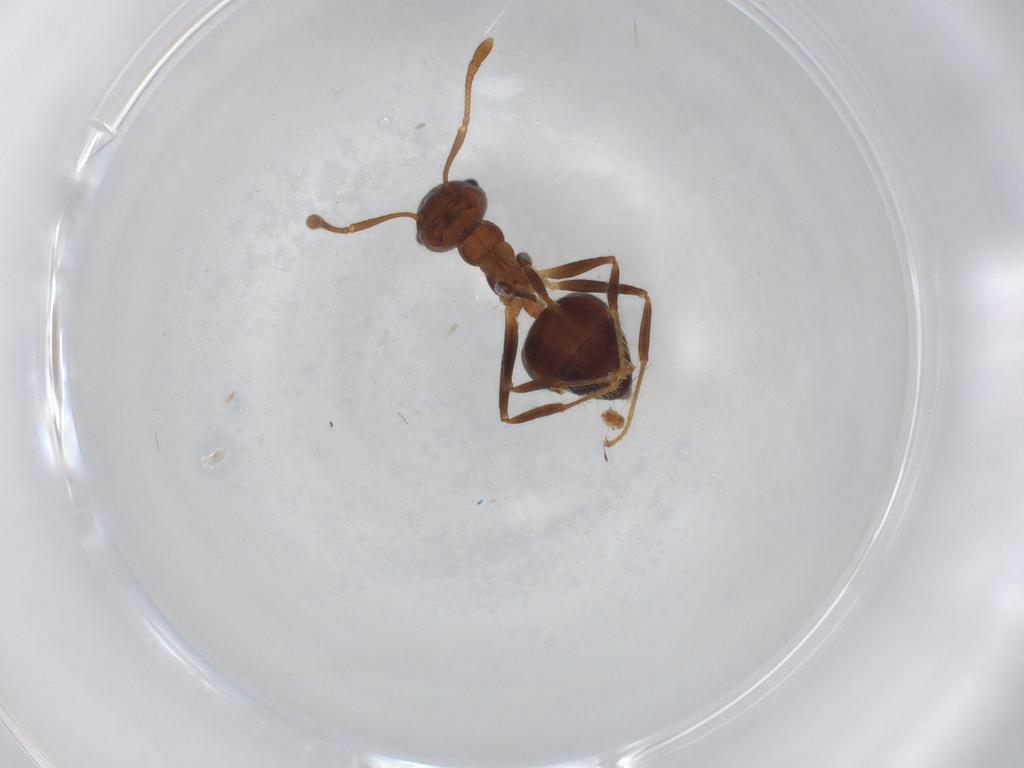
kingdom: Animalia
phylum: Arthropoda
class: Insecta
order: Hymenoptera
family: Formicidae
